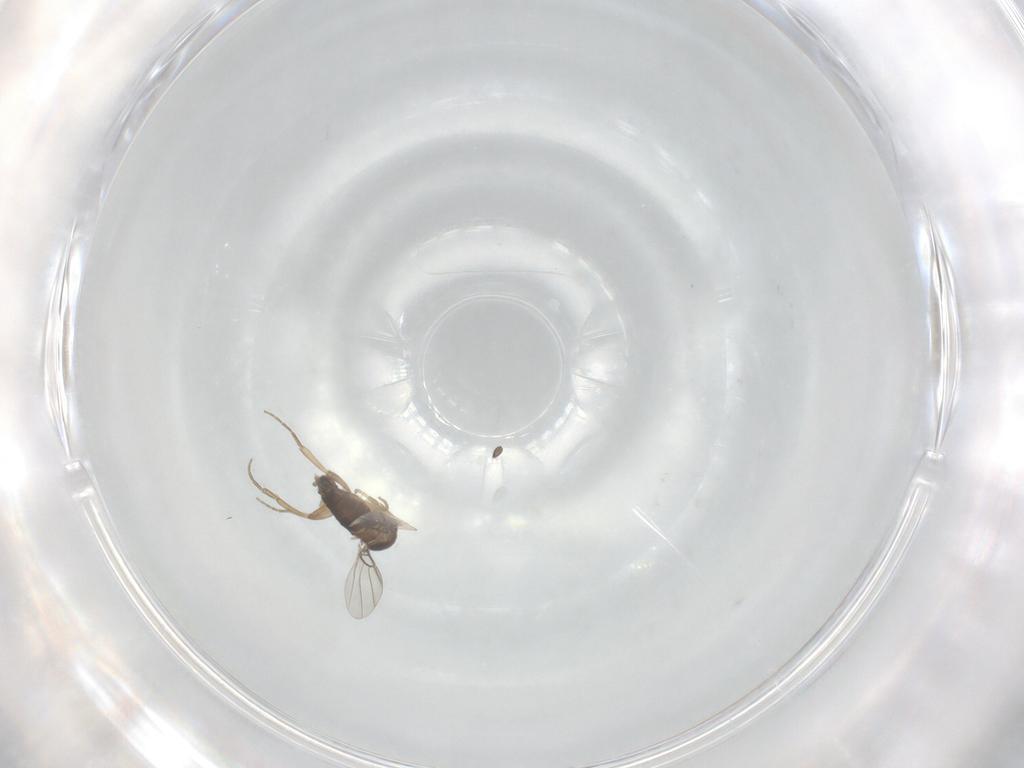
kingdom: Animalia
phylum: Arthropoda
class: Insecta
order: Diptera
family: Phoridae
